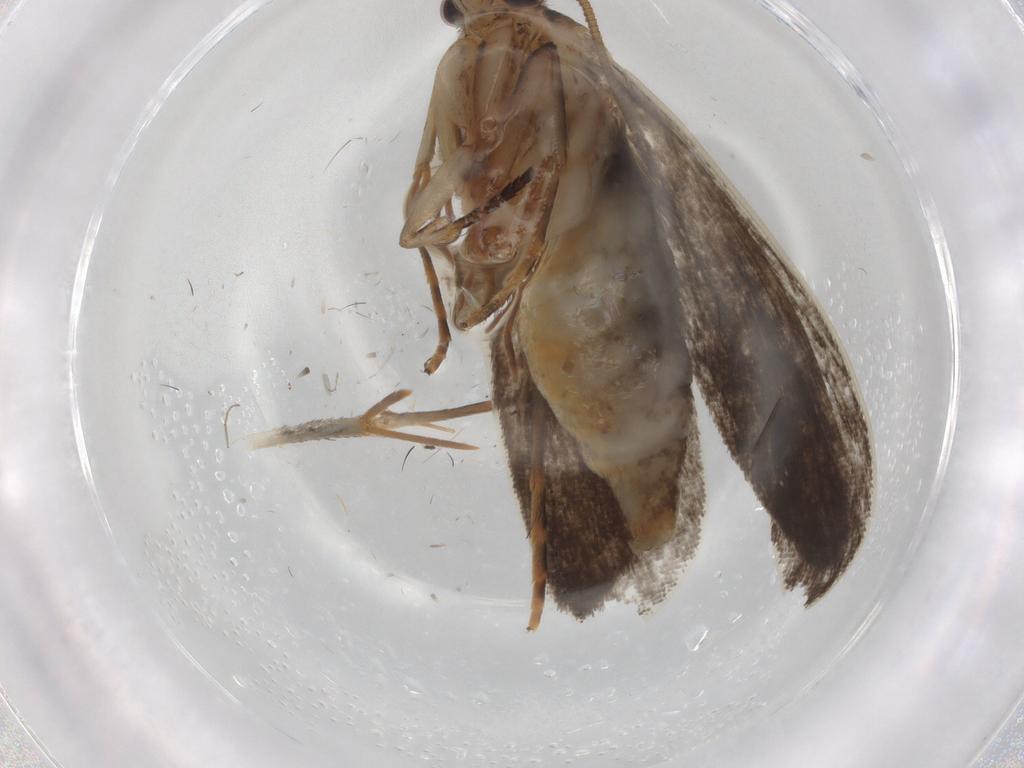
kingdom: Animalia
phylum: Arthropoda
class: Insecta
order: Lepidoptera
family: Tineidae
